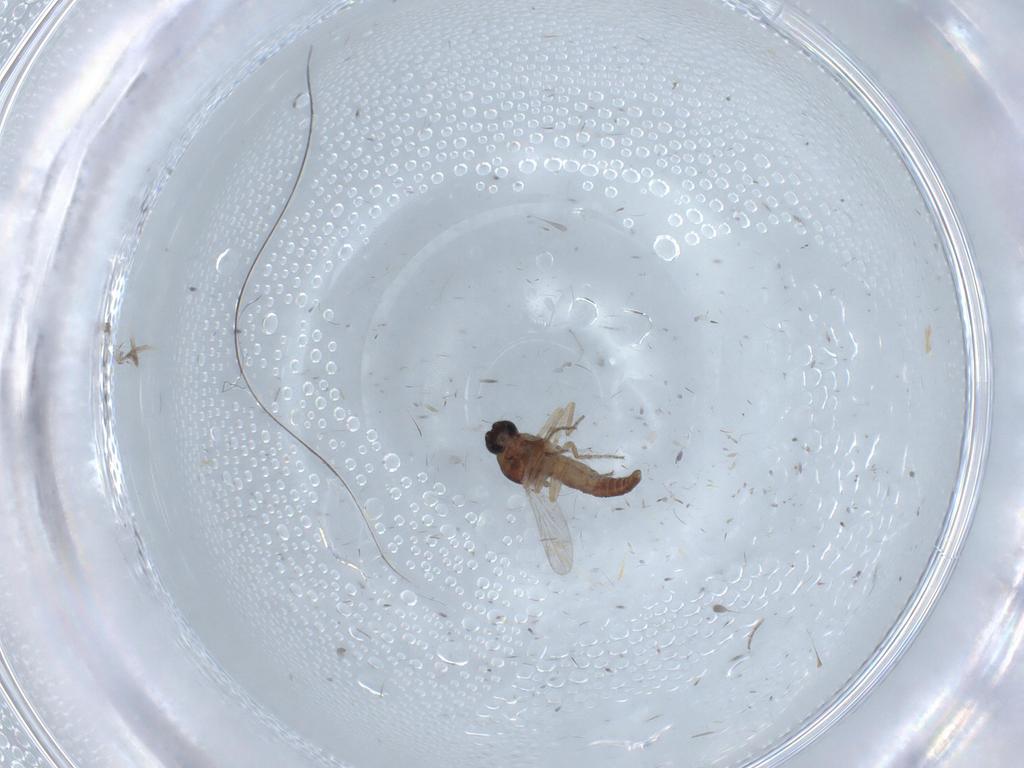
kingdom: Animalia
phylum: Arthropoda
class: Insecta
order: Diptera
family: Ceratopogonidae
